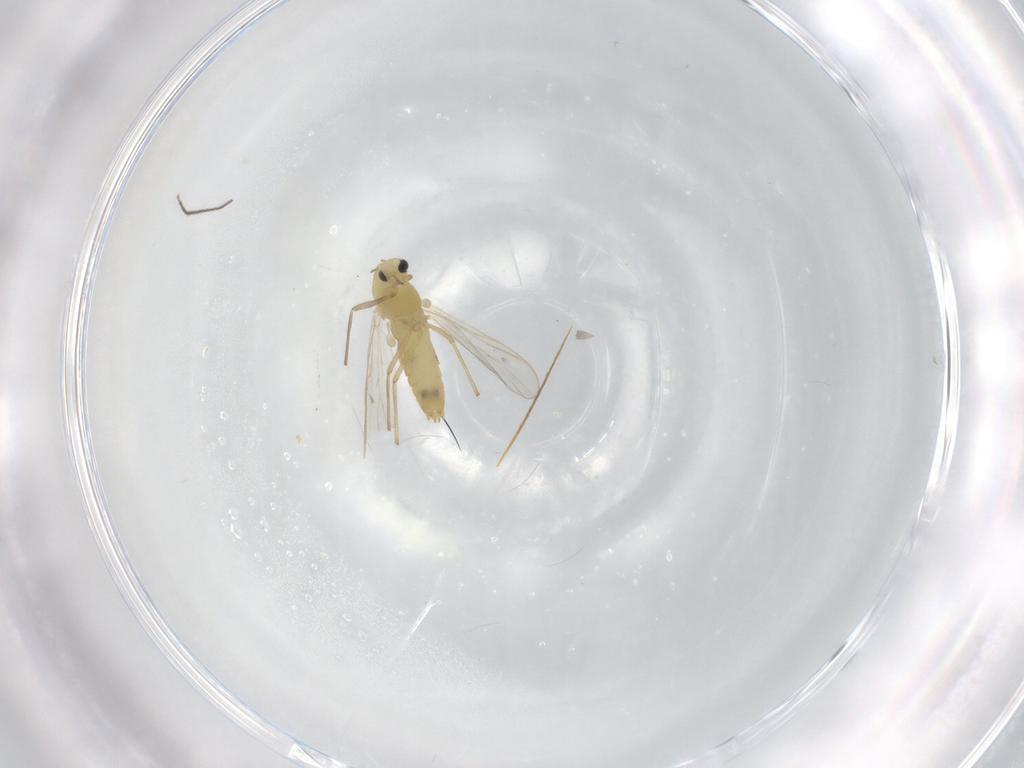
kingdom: Animalia
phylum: Arthropoda
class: Insecta
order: Diptera
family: Chironomidae
